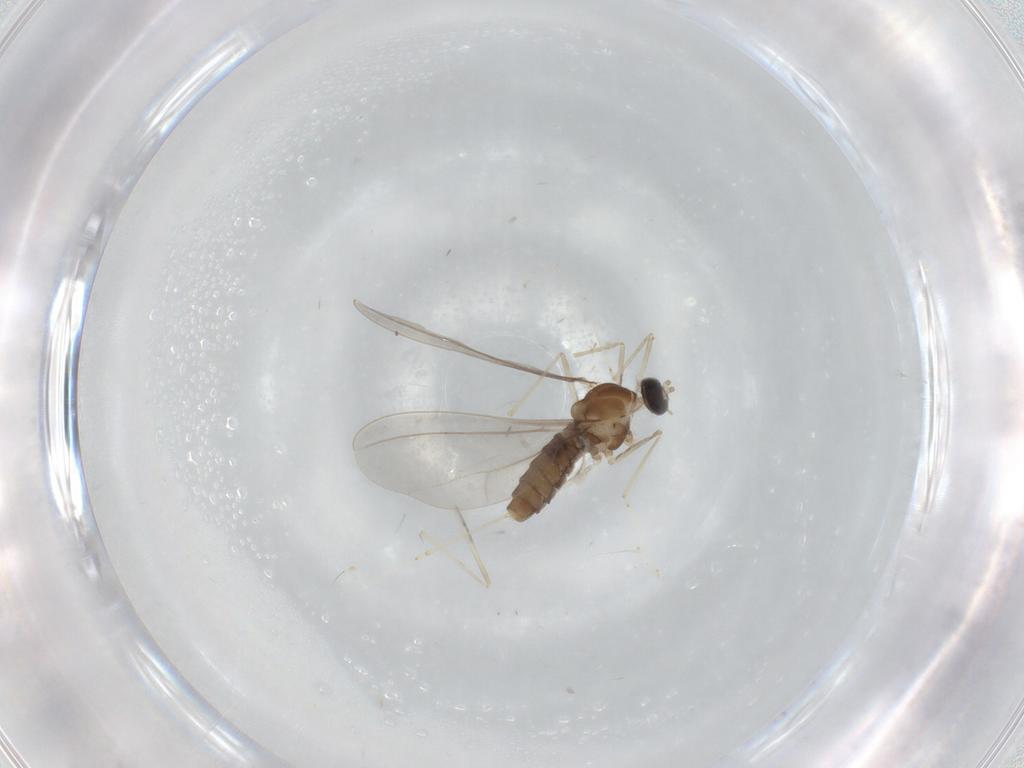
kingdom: Animalia
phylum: Arthropoda
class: Insecta
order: Diptera
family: Cecidomyiidae
